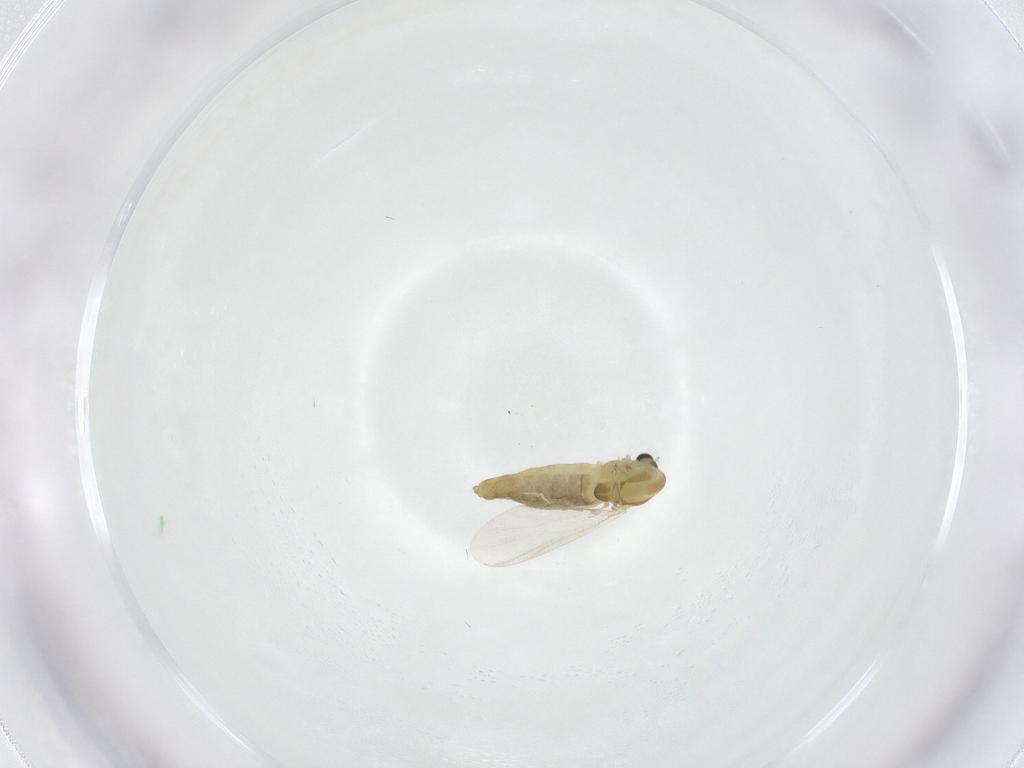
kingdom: Animalia
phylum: Arthropoda
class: Insecta
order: Diptera
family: Chironomidae
